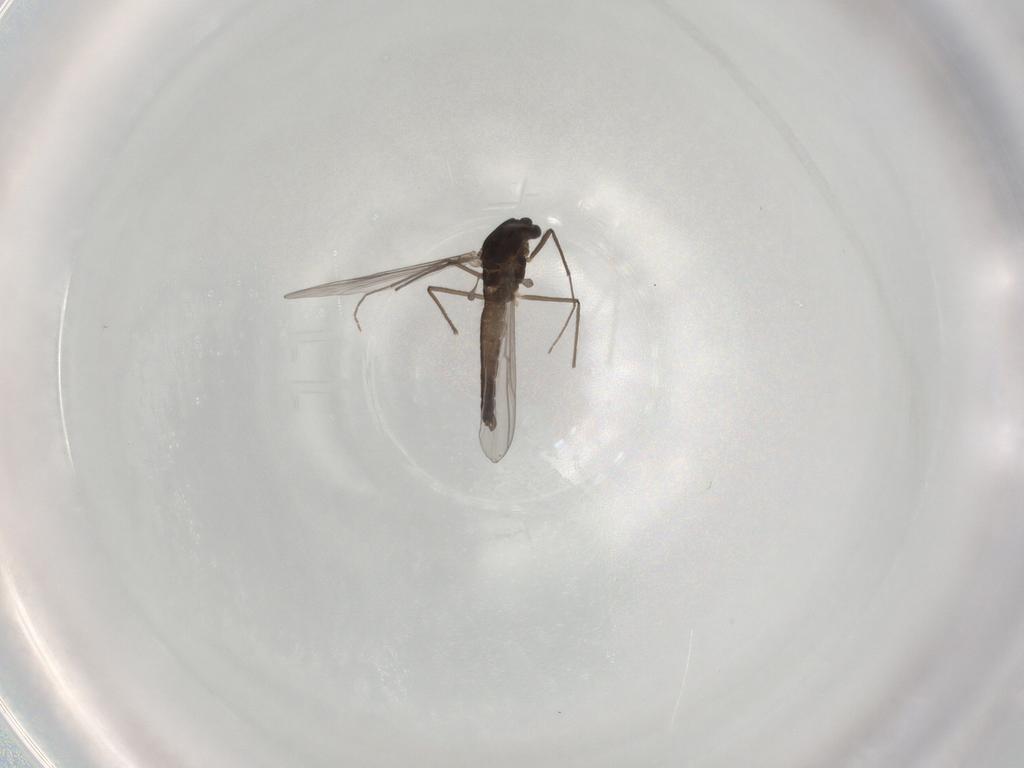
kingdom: Animalia
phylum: Arthropoda
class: Insecta
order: Diptera
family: Chironomidae
